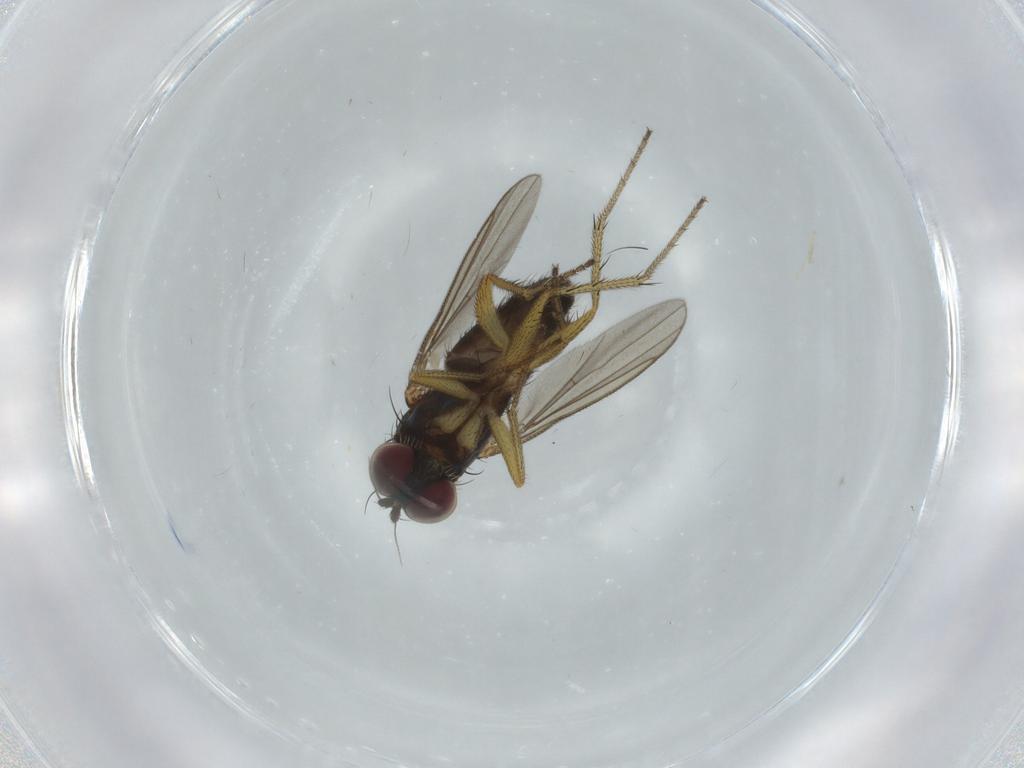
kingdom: Animalia
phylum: Arthropoda
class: Insecta
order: Diptera
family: Dolichopodidae
